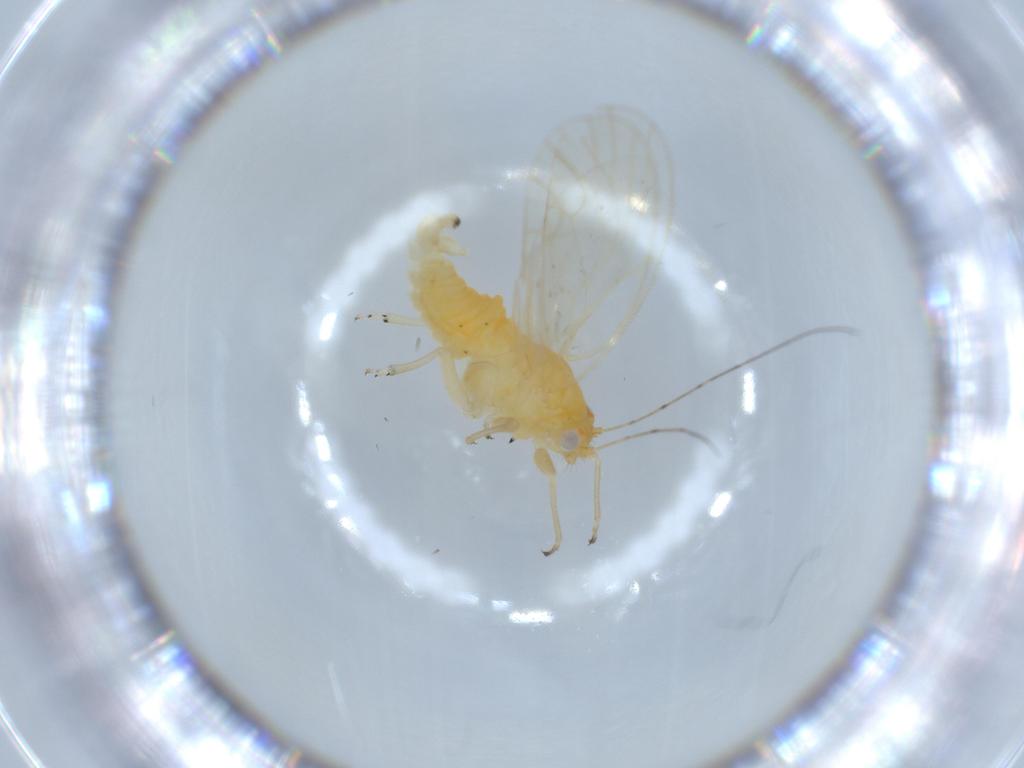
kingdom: Animalia
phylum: Arthropoda
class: Insecta
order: Hemiptera
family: Psyllidae
